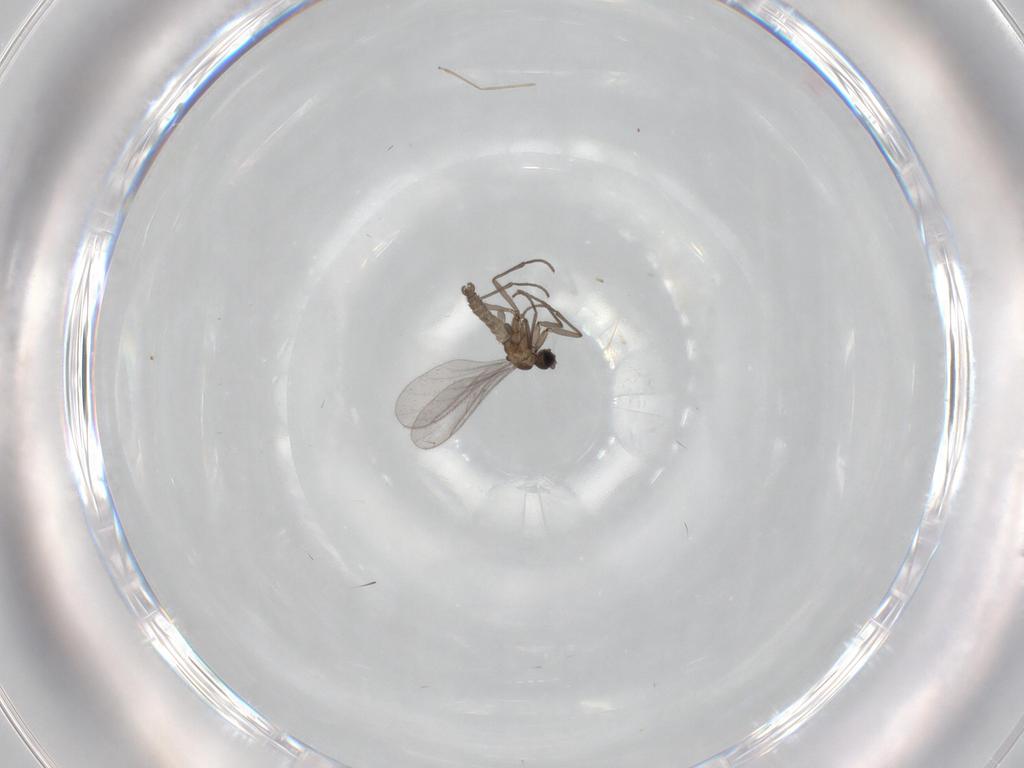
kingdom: Animalia
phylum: Arthropoda
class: Insecta
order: Diptera
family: Sciaridae
